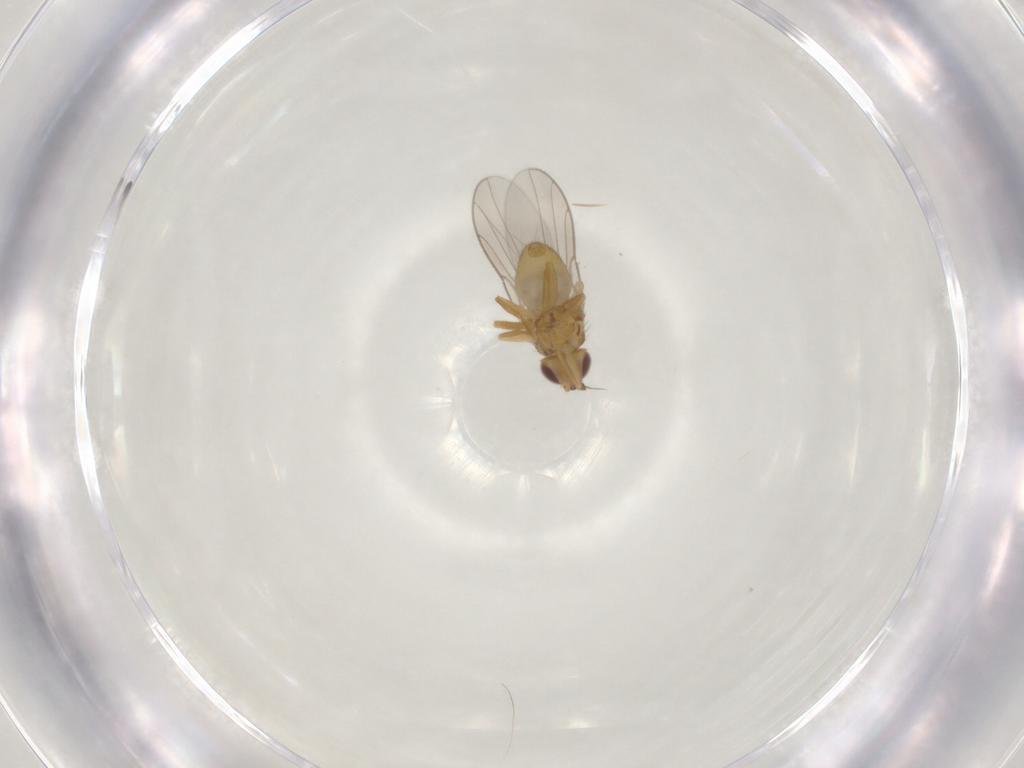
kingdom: Animalia
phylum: Arthropoda
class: Insecta
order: Diptera
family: Chloropidae
